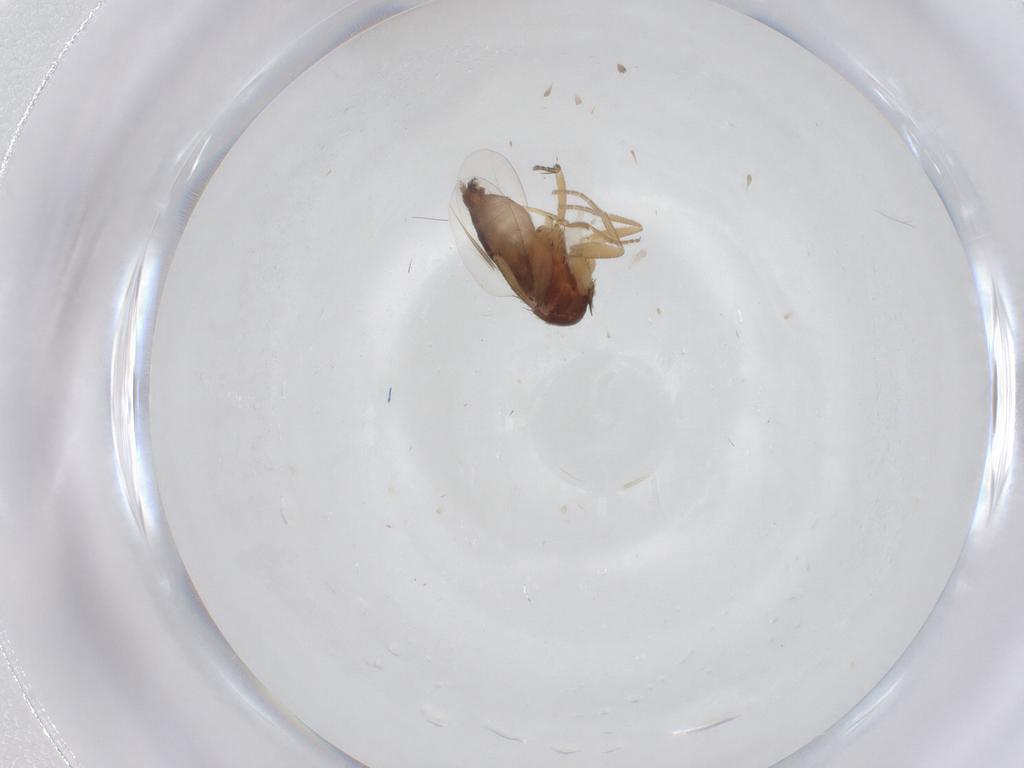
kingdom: Animalia
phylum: Arthropoda
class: Insecta
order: Diptera
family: Phoridae
